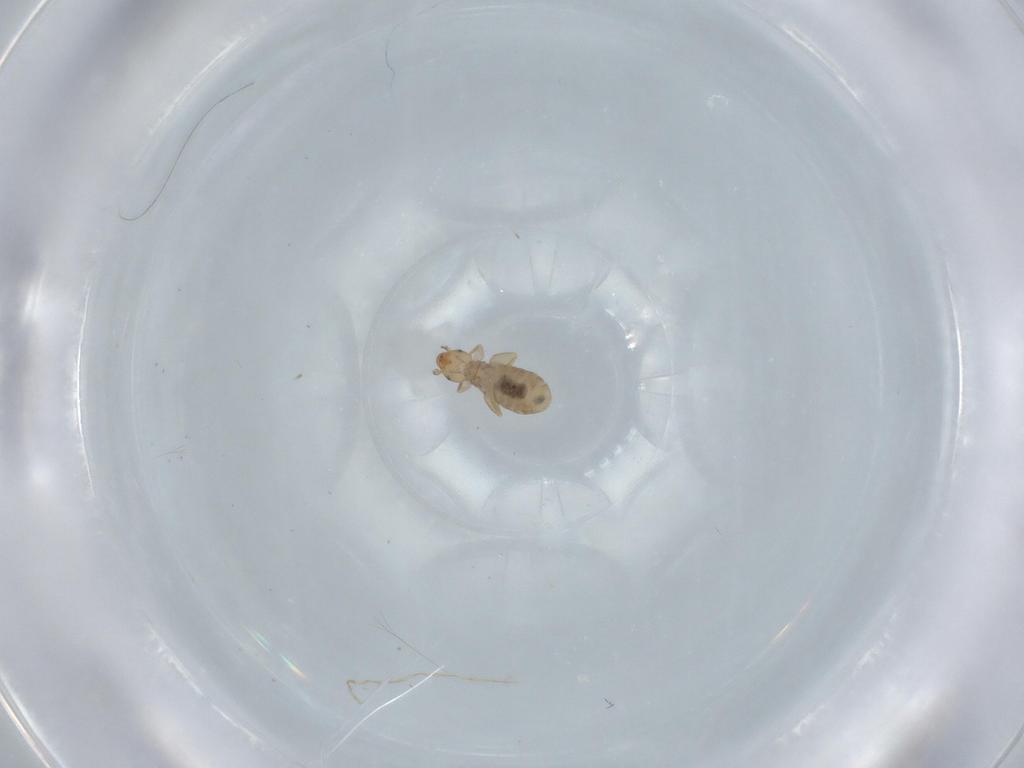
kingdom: Animalia
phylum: Arthropoda
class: Insecta
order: Psocodea
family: Liposcelididae
